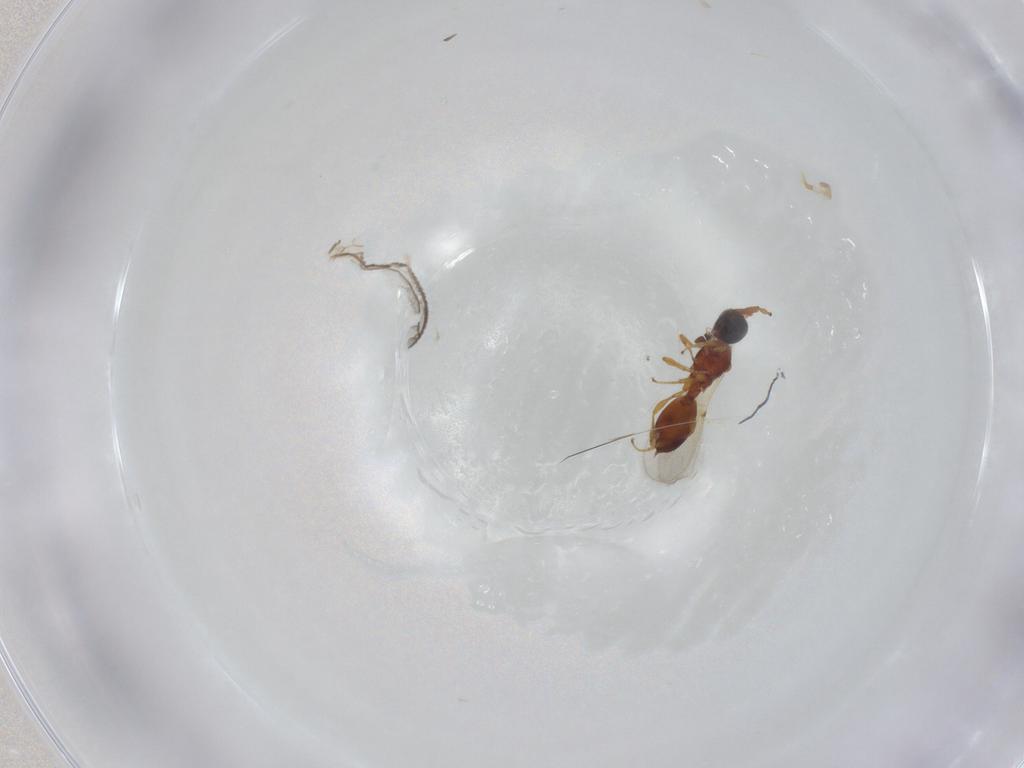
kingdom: Animalia
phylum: Arthropoda
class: Insecta
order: Hymenoptera
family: Diapriidae
